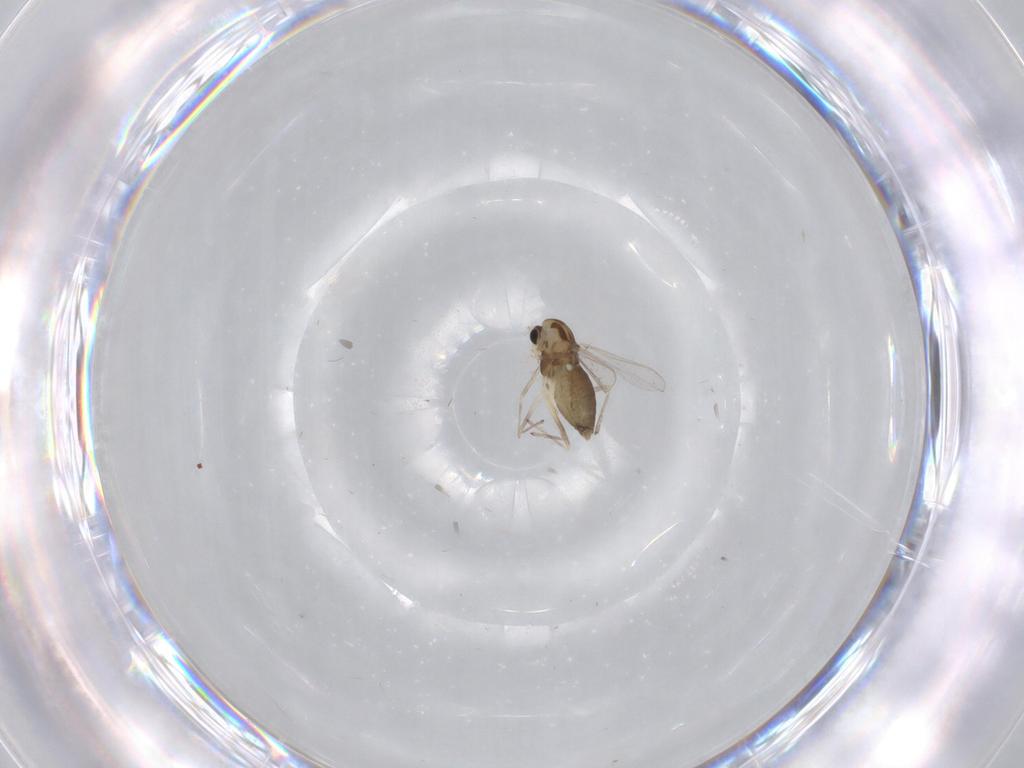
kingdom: Animalia
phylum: Arthropoda
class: Insecta
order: Diptera
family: Chironomidae
